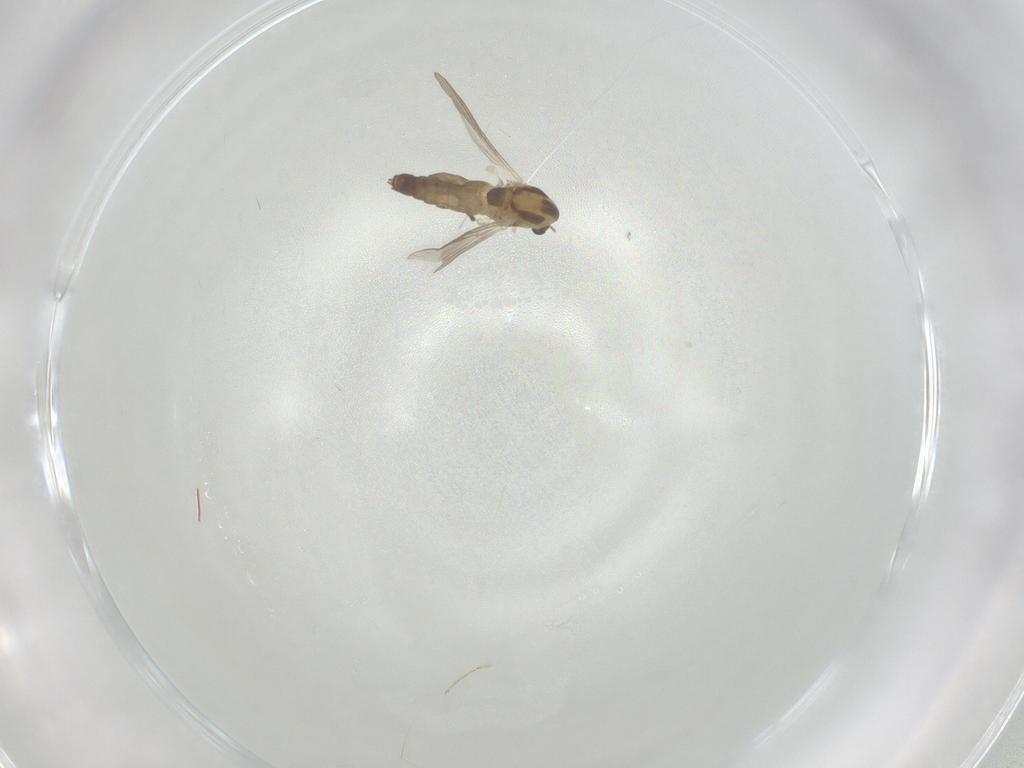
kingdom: Animalia
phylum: Arthropoda
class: Insecta
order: Diptera
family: Chironomidae
